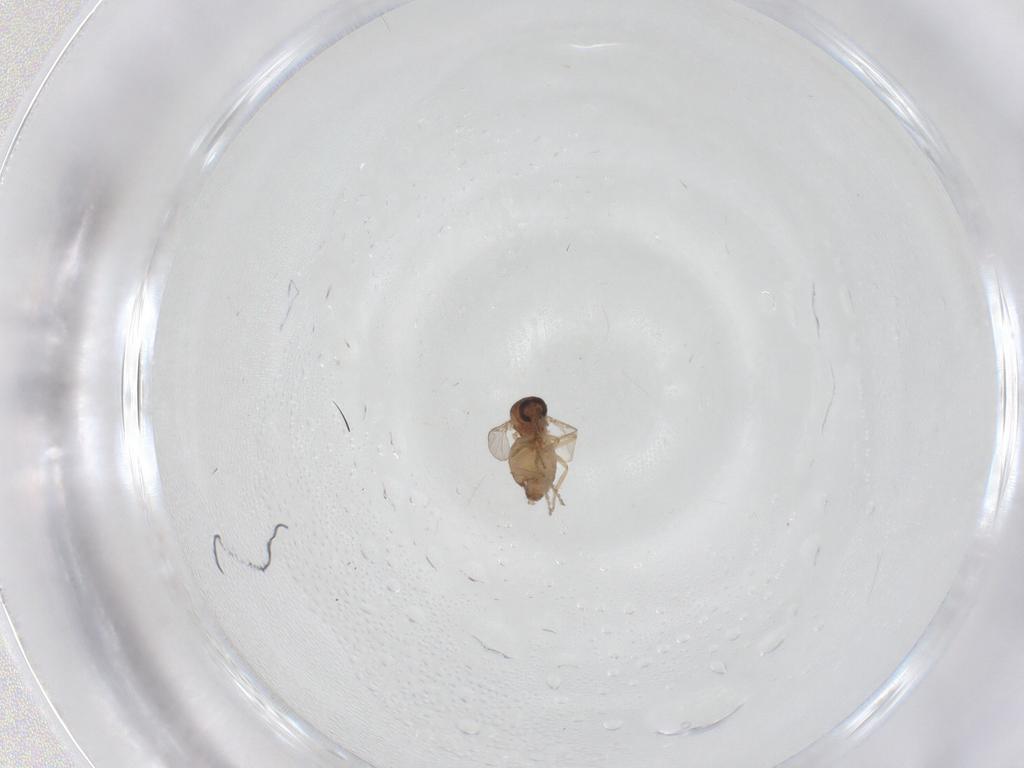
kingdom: Animalia
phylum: Arthropoda
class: Insecta
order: Diptera
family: Ceratopogonidae
